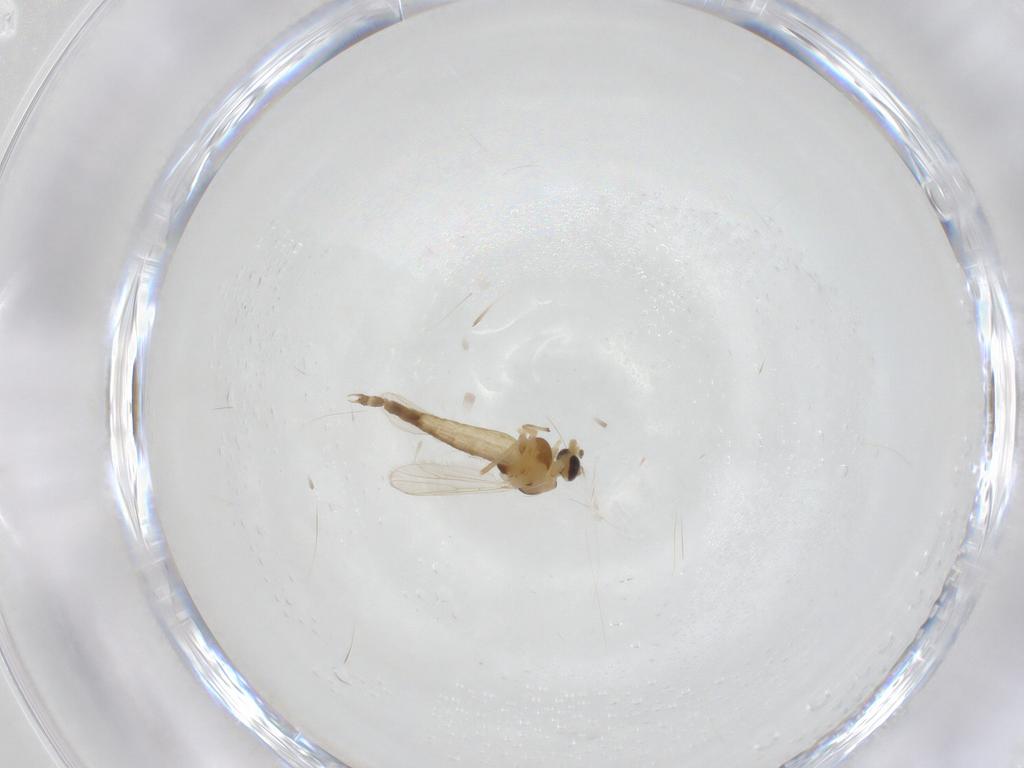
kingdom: Animalia
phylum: Arthropoda
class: Insecta
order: Diptera
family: Chironomidae
